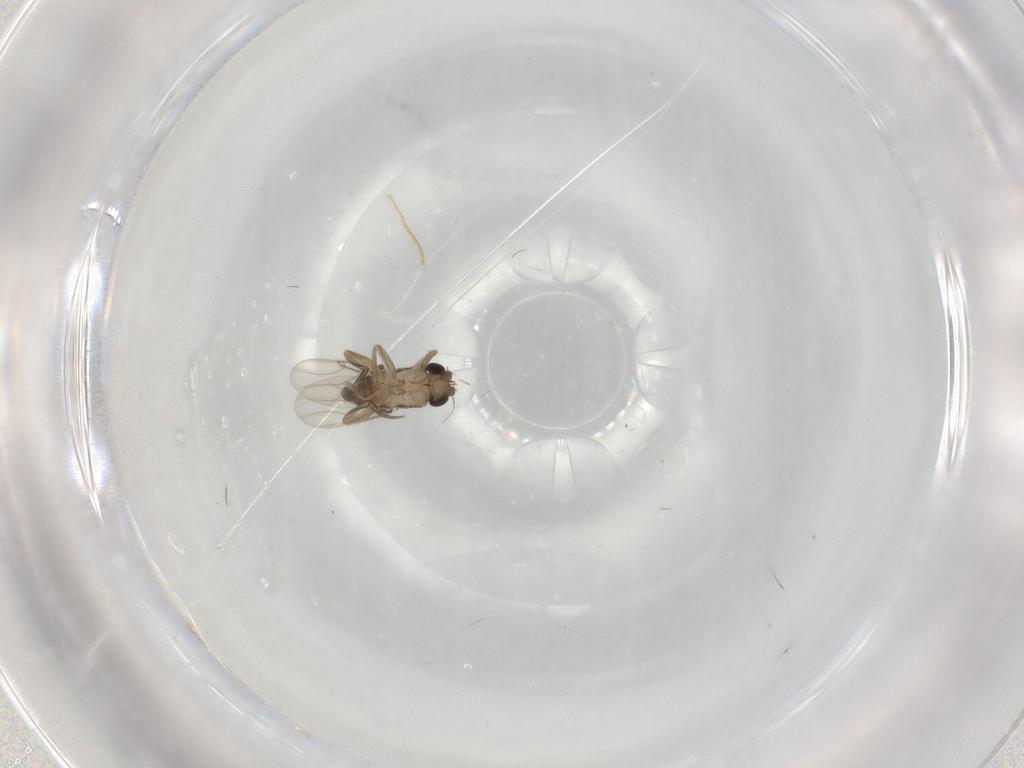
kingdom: Animalia
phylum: Arthropoda
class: Insecta
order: Diptera
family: Phoridae
